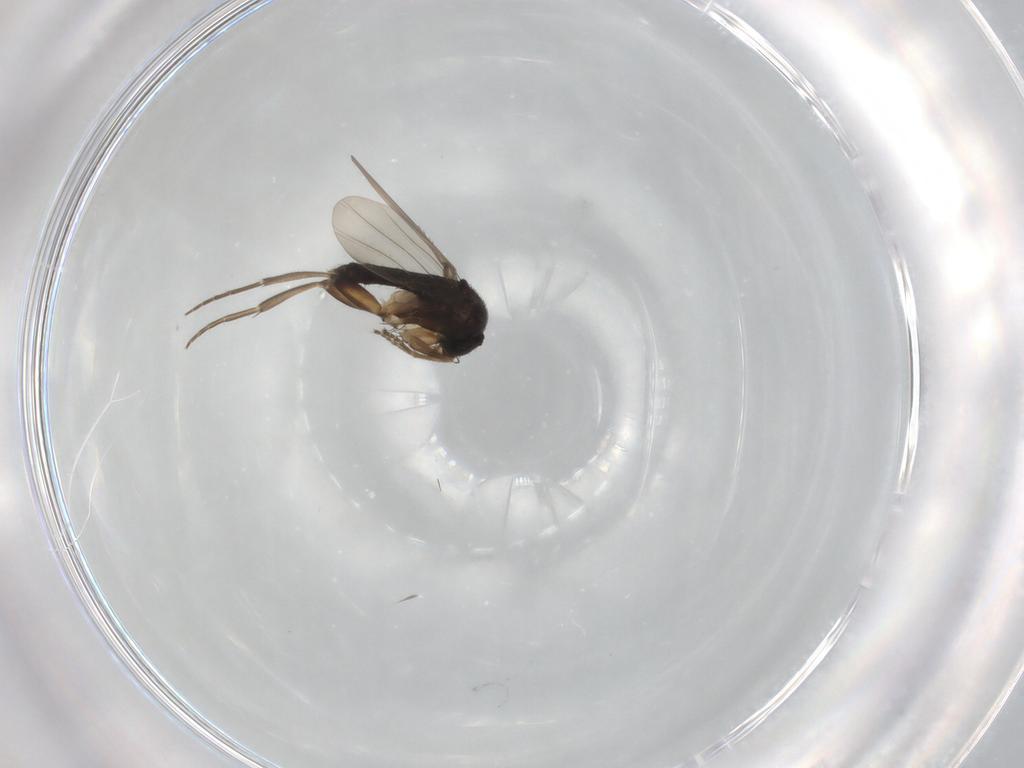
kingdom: Animalia
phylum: Arthropoda
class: Insecta
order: Diptera
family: Phoridae
